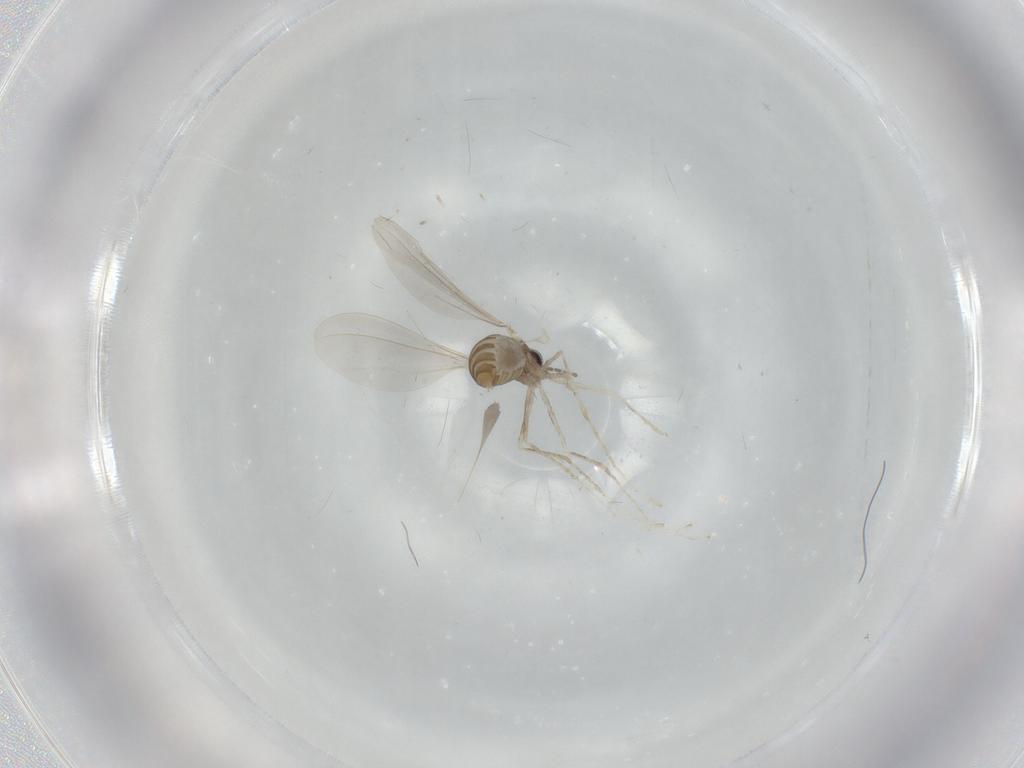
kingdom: Animalia
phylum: Arthropoda
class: Insecta
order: Diptera
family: Cecidomyiidae
